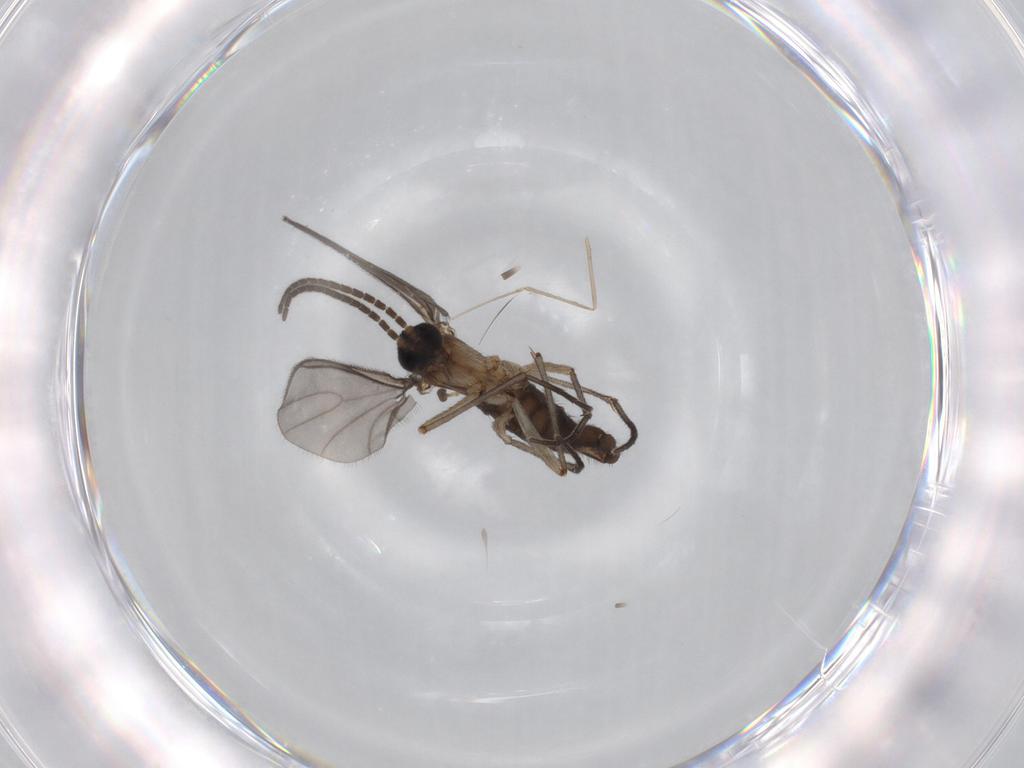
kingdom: Animalia
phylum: Arthropoda
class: Insecta
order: Diptera
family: Sciaridae
